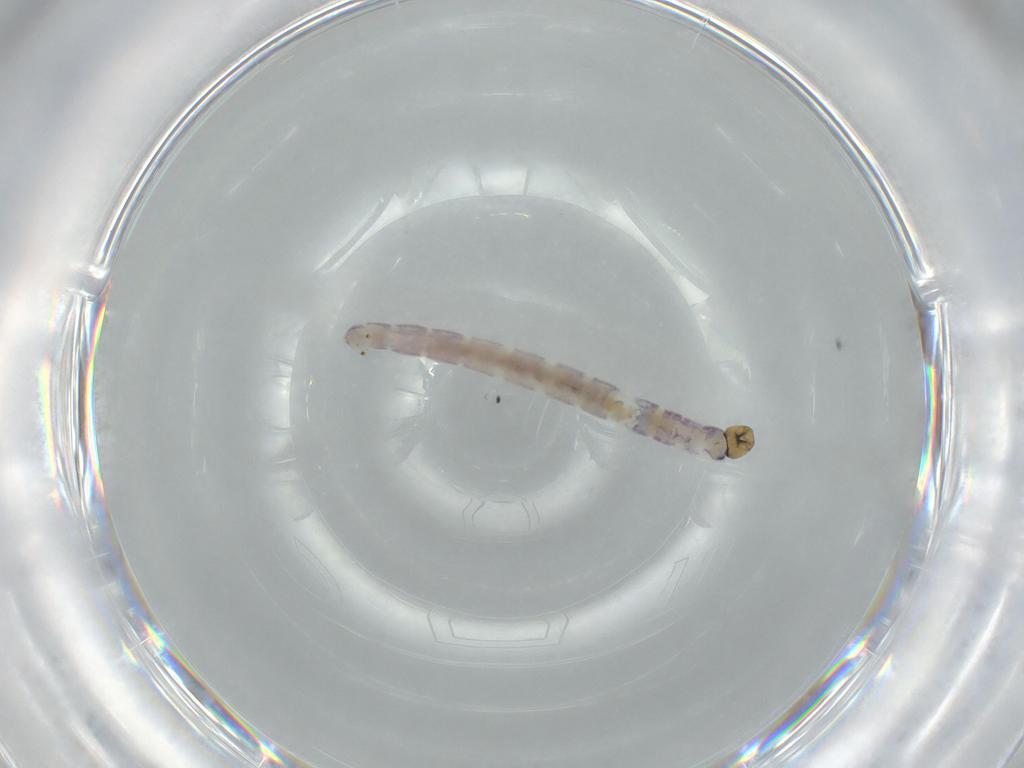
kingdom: Animalia
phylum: Arthropoda
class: Insecta
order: Diptera
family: Chironomidae
